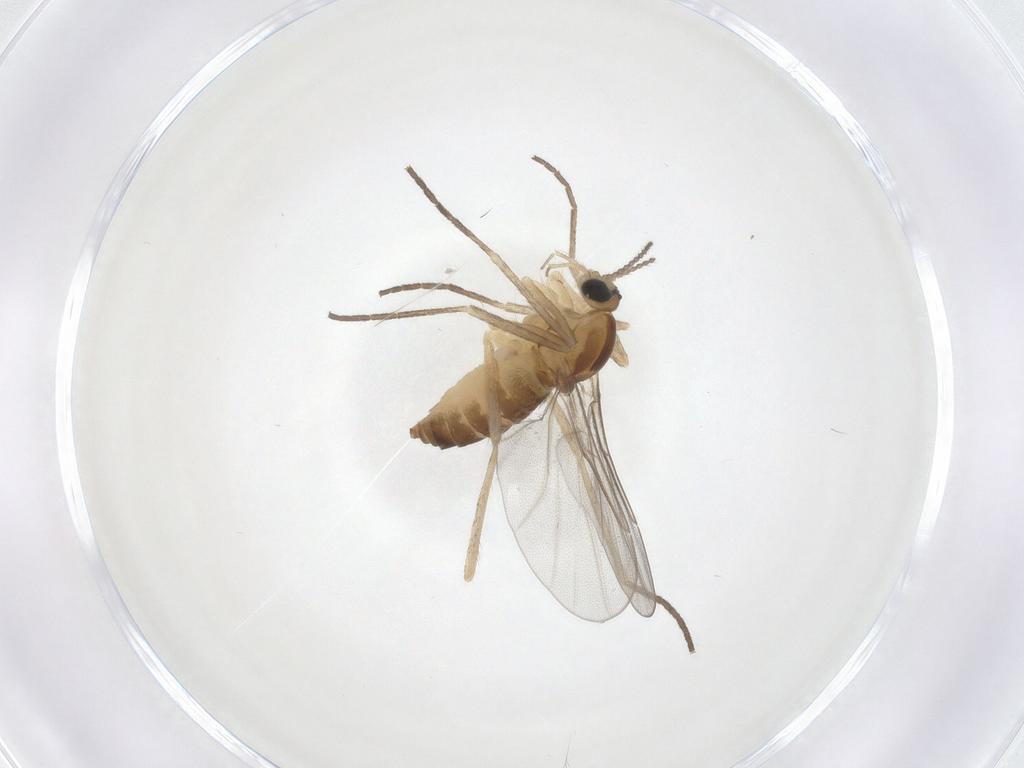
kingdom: Animalia
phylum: Arthropoda
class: Insecta
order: Diptera
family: Cecidomyiidae
